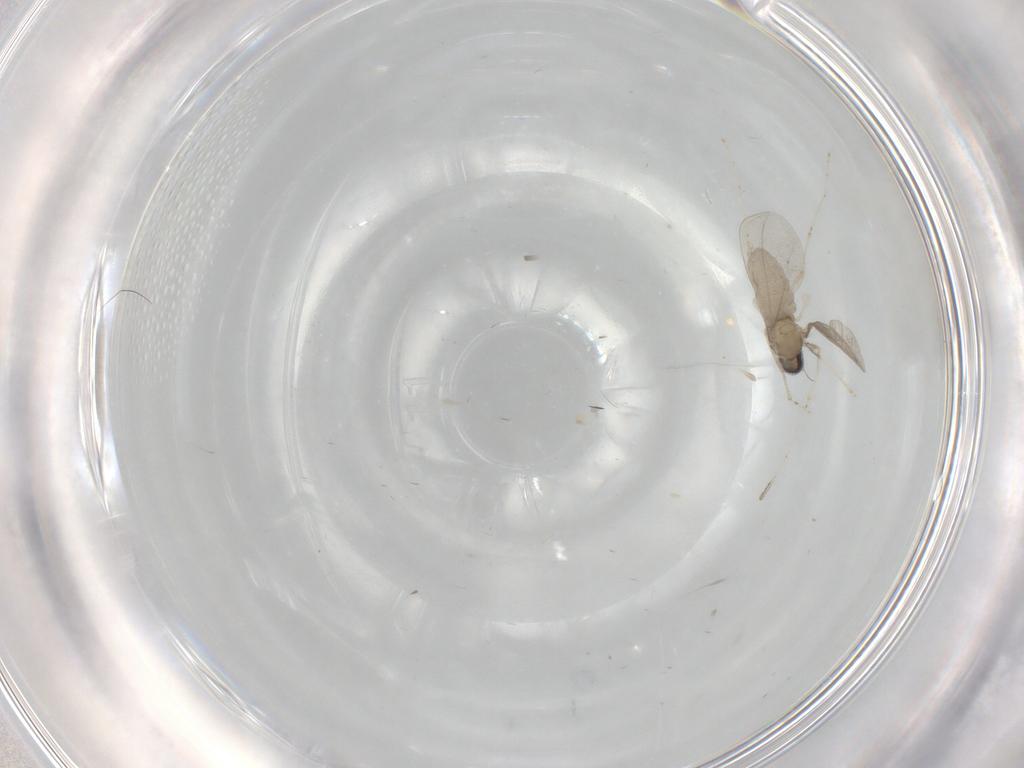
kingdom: Animalia
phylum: Arthropoda
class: Insecta
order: Diptera
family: Cecidomyiidae
